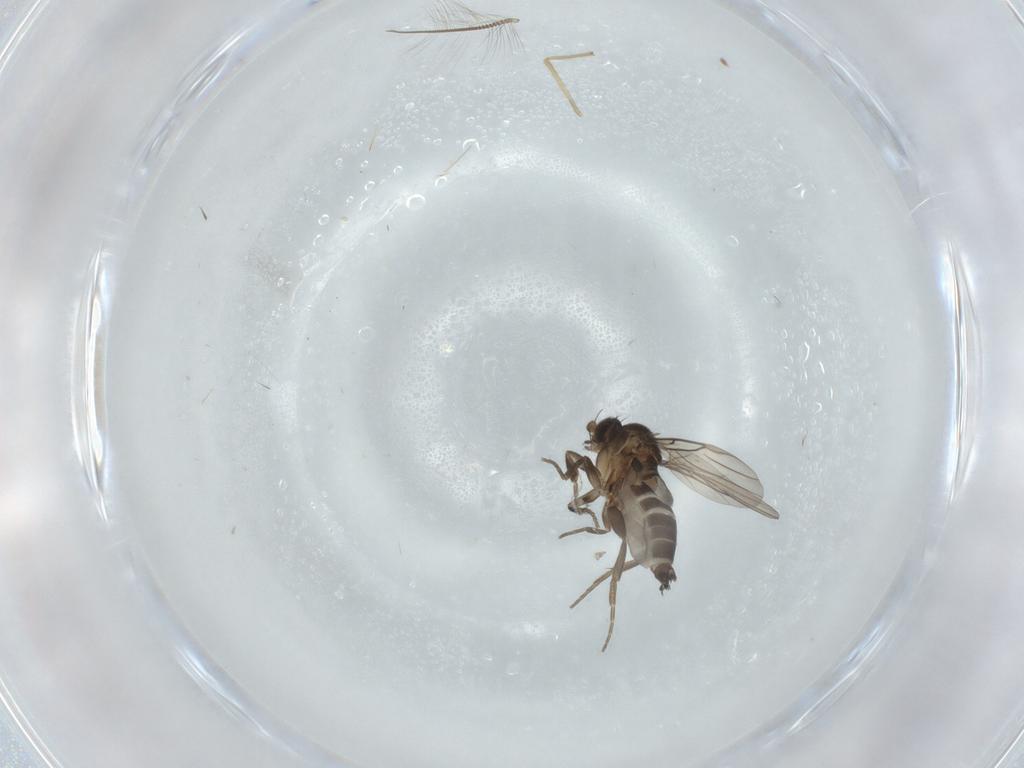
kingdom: Animalia
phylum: Arthropoda
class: Insecta
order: Diptera
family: Phoridae
